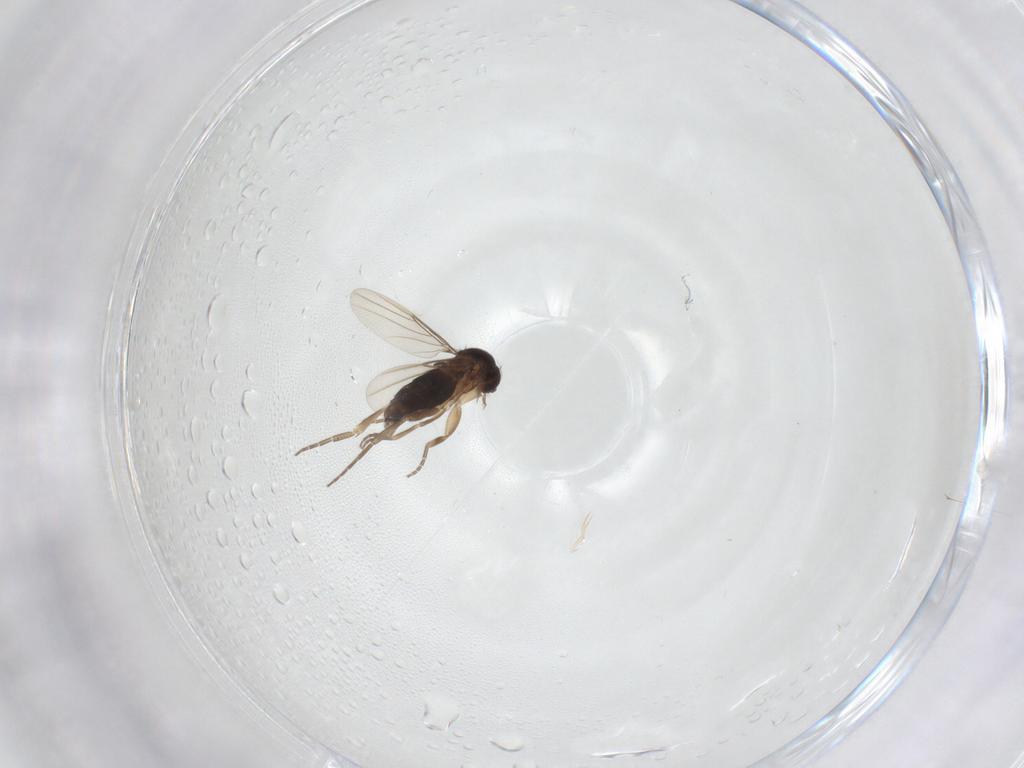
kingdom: Animalia
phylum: Arthropoda
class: Insecta
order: Diptera
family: Phoridae
